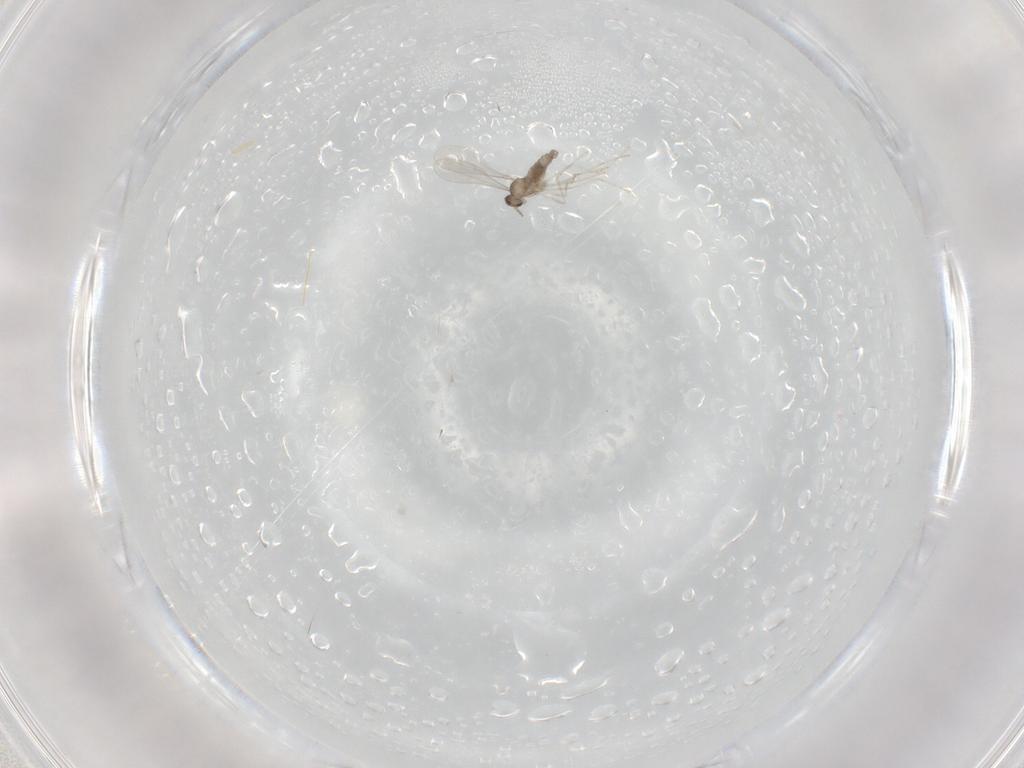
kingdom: Animalia
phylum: Arthropoda
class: Insecta
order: Diptera
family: Cecidomyiidae
